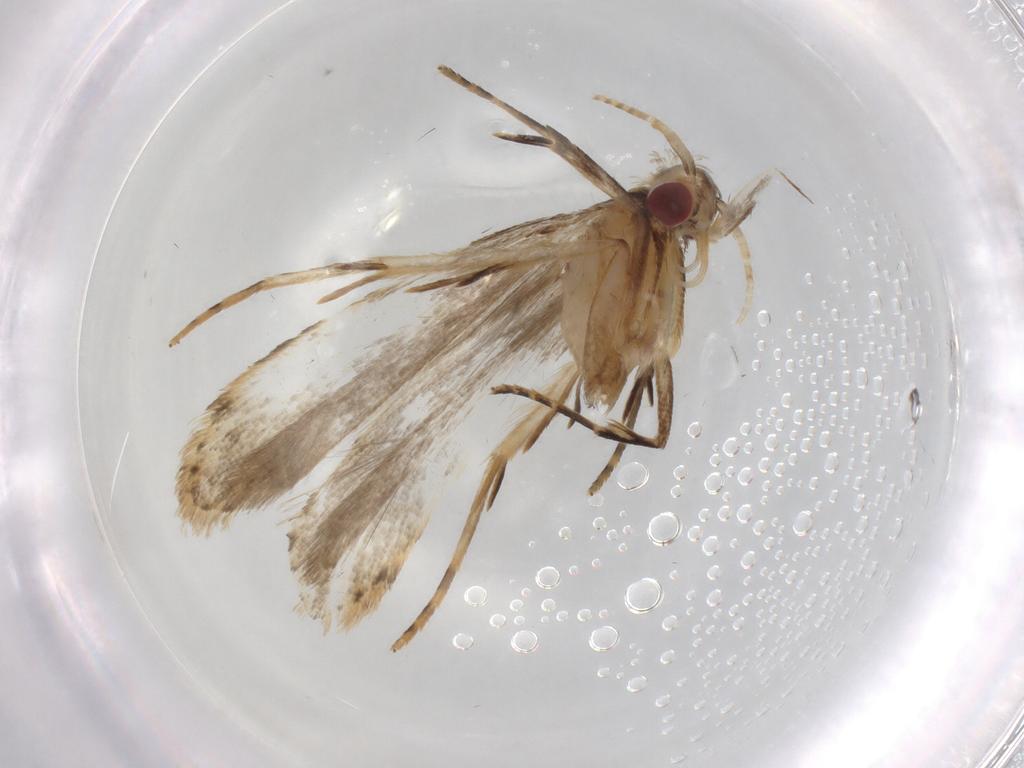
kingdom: Animalia
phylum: Arthropoda
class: Insecta
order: Lepidoptera
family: Gelechiidae
